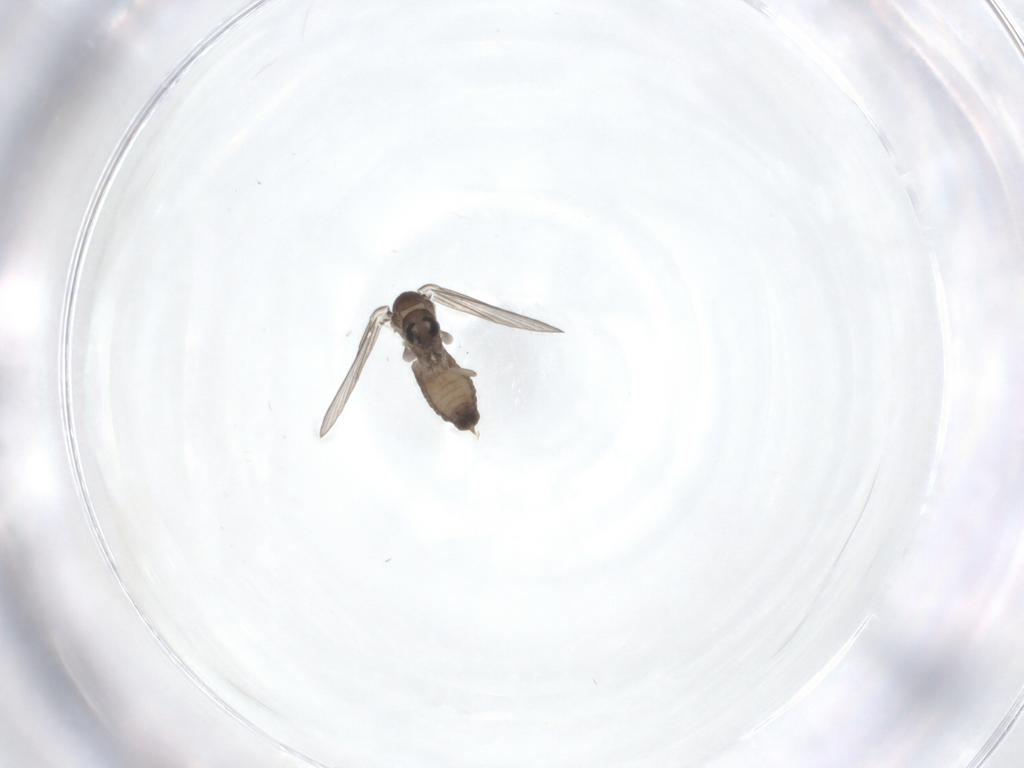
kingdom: Animalia
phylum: Arthropoda
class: Insecta
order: Diptera
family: Psychodidae
